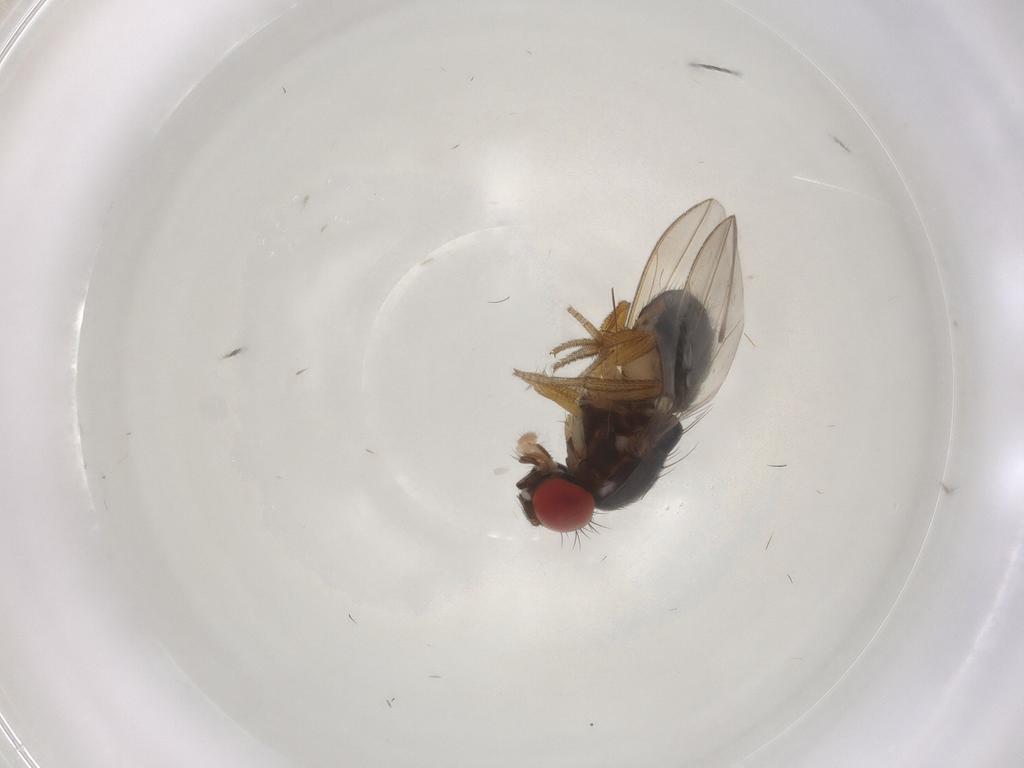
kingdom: Animalia
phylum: Arthropoda
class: Insecta
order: Diptera
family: Drosophilidae
